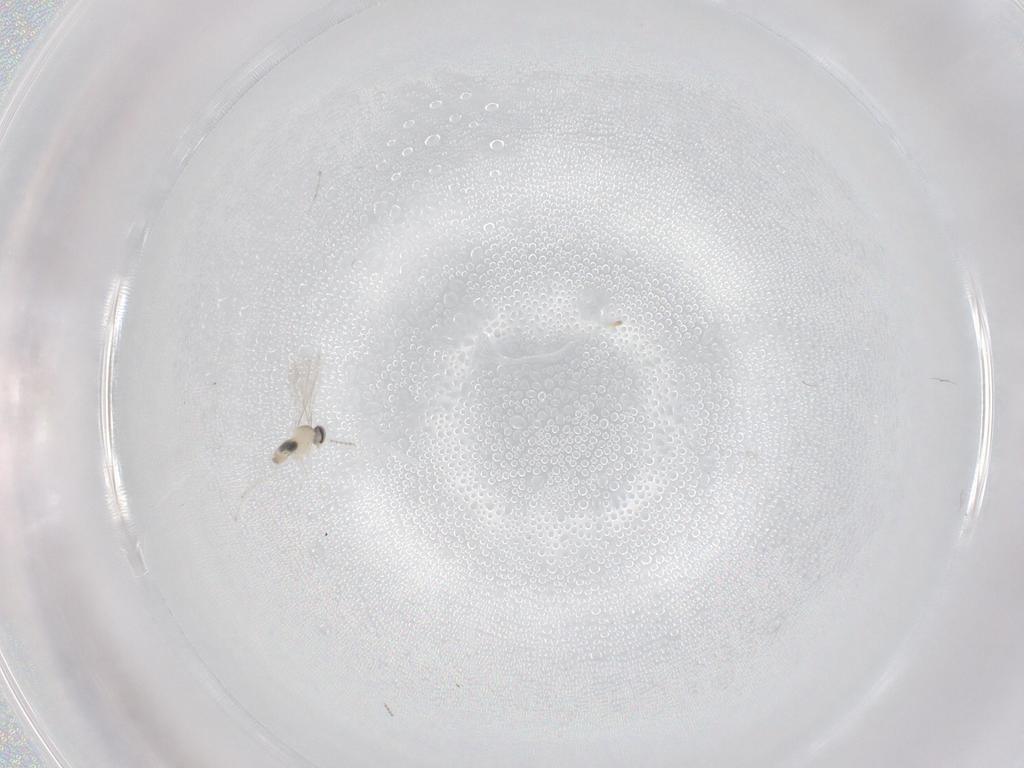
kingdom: Animalia
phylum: Arthropoda
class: Insecta
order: Diptera
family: Cecidomyiidae
